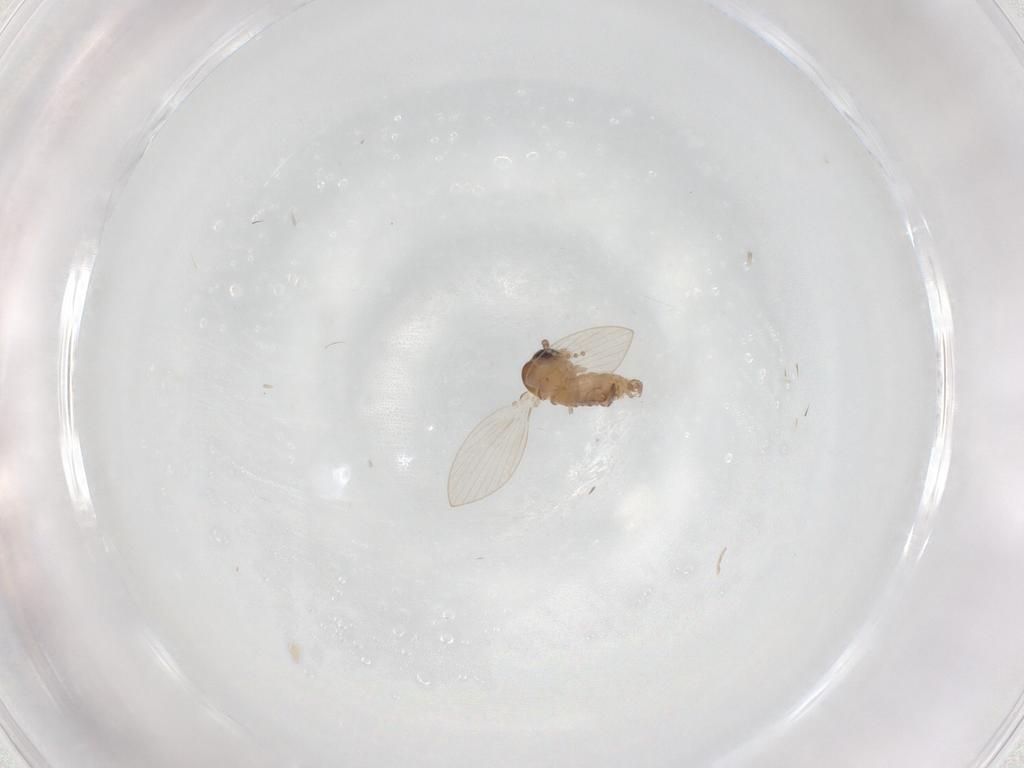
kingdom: Animalia
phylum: Arthropoda
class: Insecta
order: Diptera
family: Psychodidae
